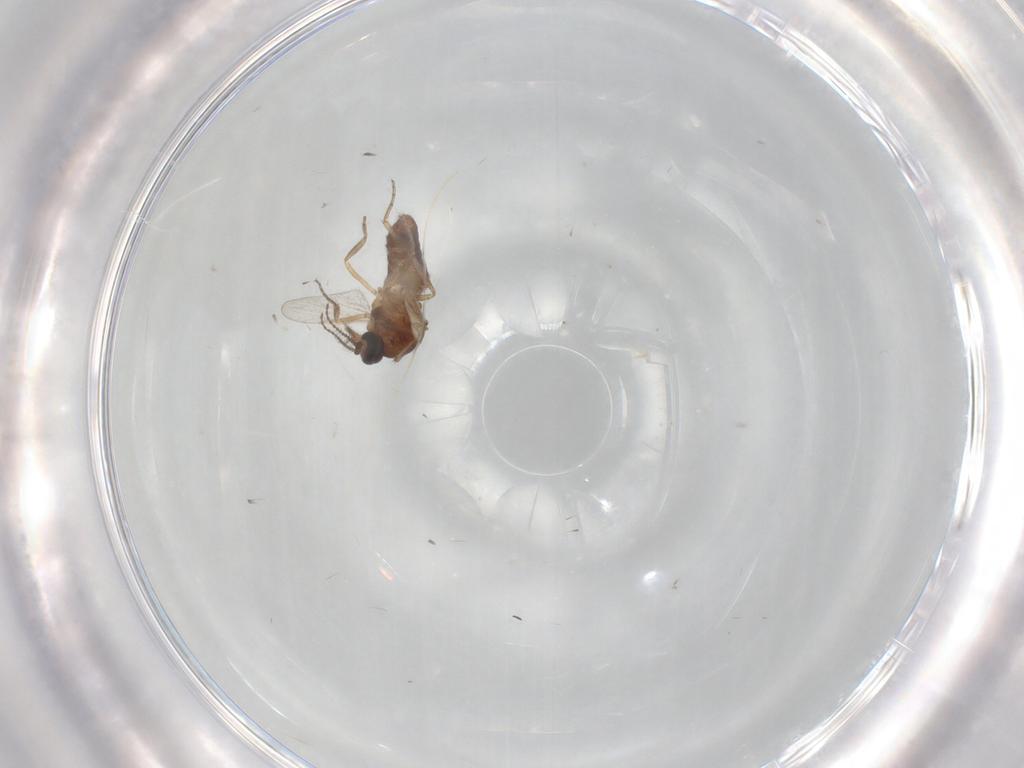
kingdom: Animalia
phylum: Arthropoda
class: Insecta
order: Diptera
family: Ceratopogonidae
